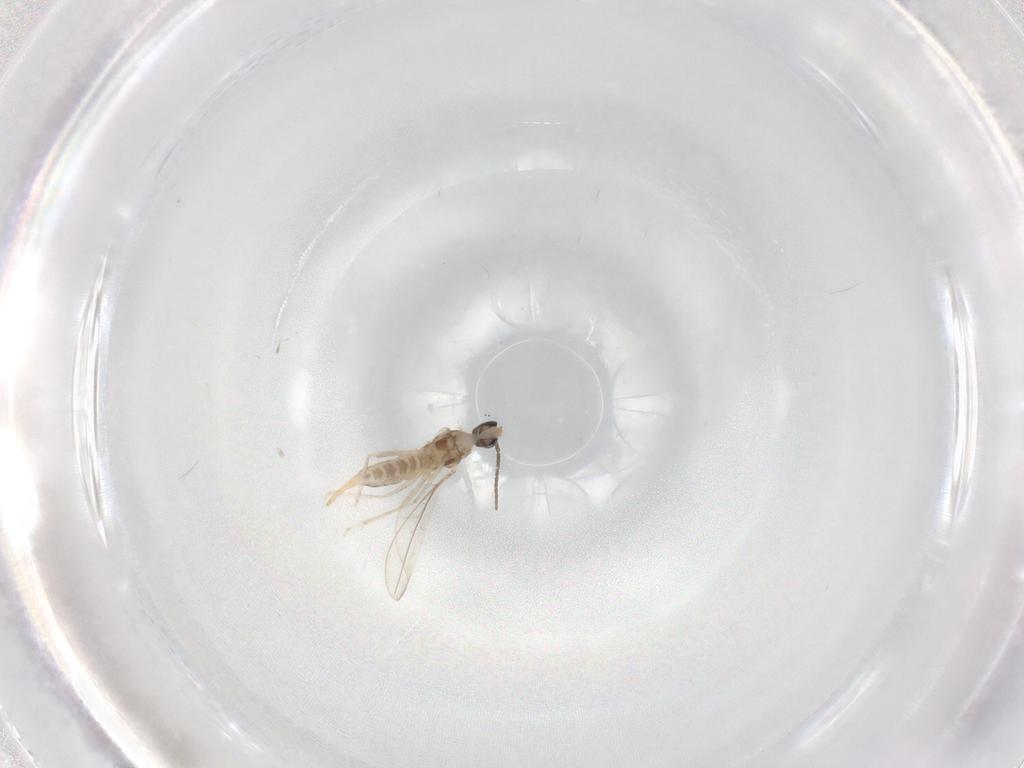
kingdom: Animalia
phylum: Arthropoda
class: Insecta
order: Diptera
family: Cecidomyiidae
